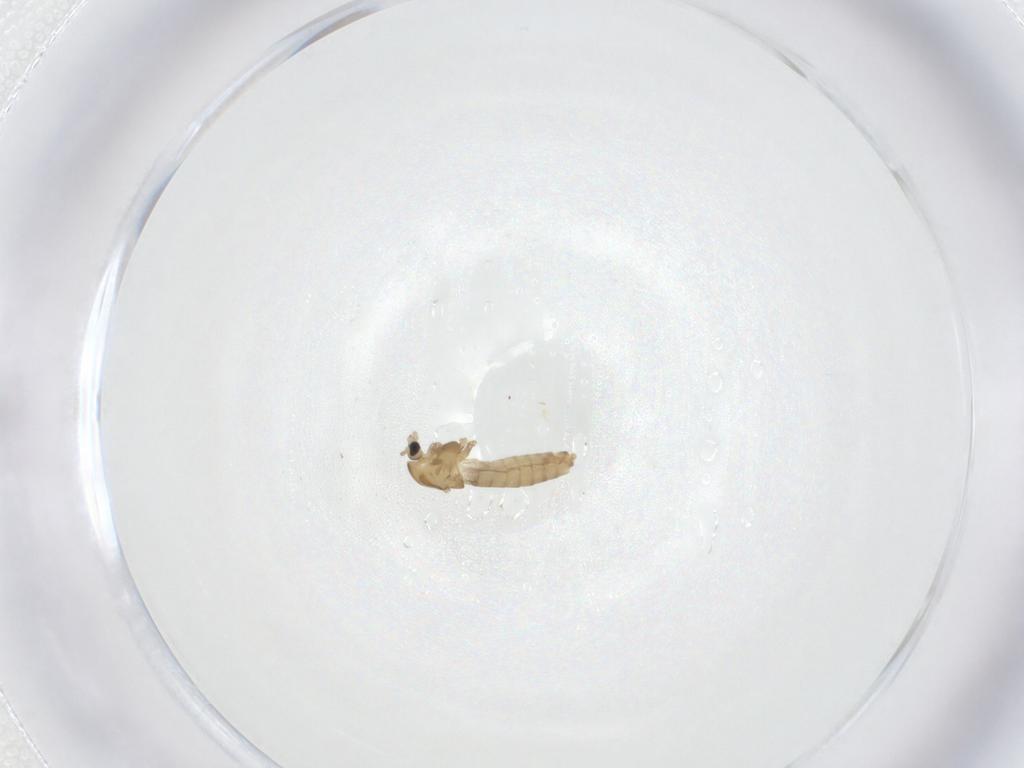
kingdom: Animalia
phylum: Arthropoda
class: Insecta
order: Diptera
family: Chironomidae
